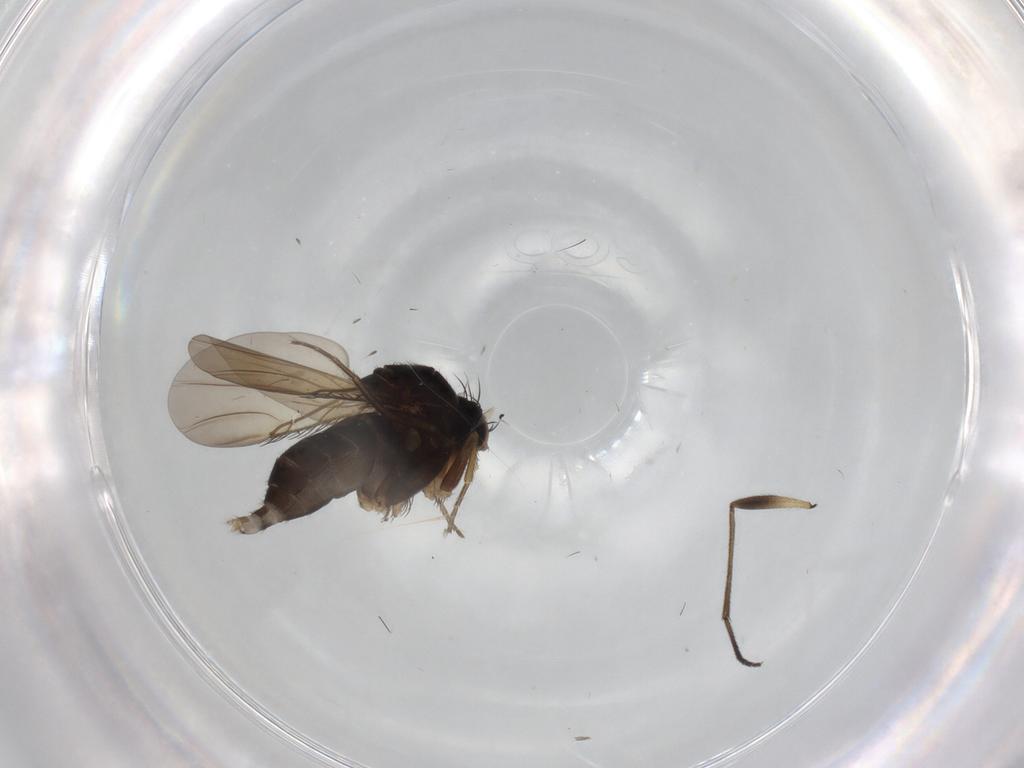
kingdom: Animalia
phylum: Arthropoda
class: Insecta
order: Diptera
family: Phoridae
